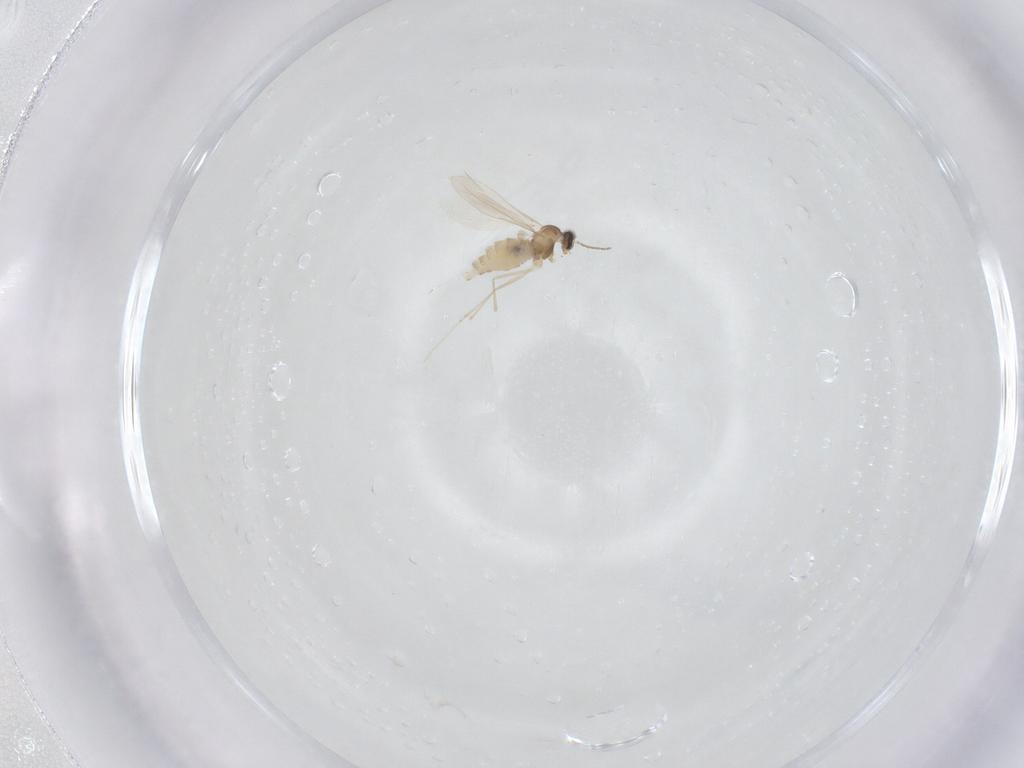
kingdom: Animalia
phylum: Arthropoda
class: Insecta
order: Diptera
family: Cecidomyiidae
